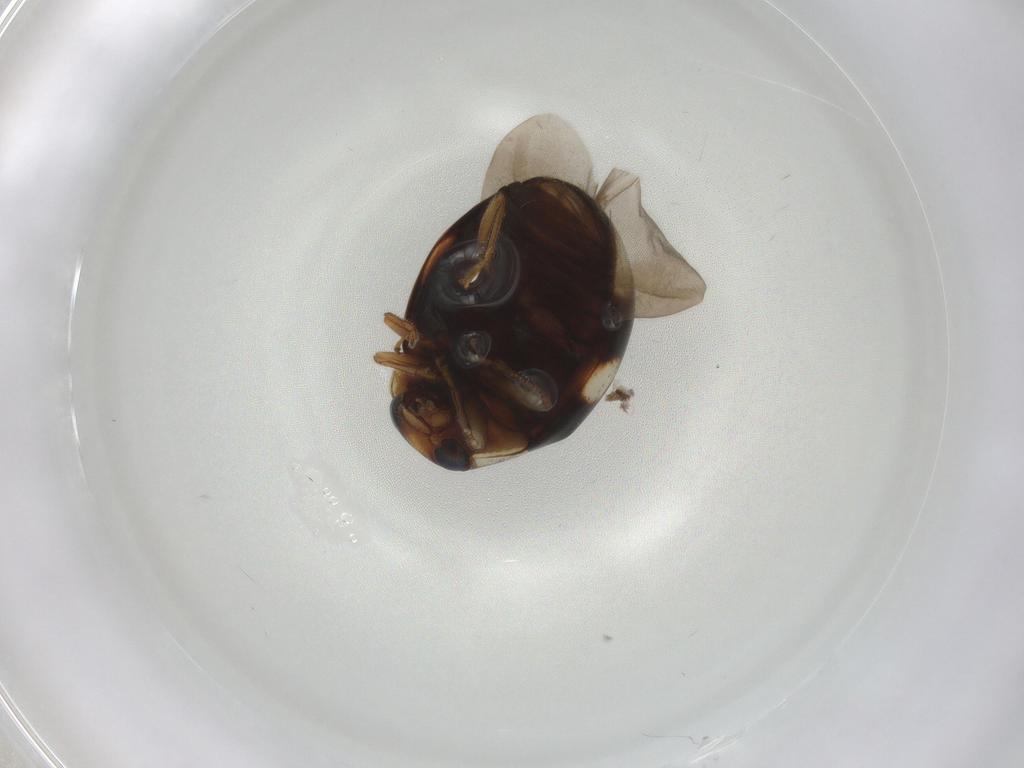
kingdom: Animalia
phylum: Arthropoda
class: Insecta
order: Coleoptera
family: Coccinellidae
